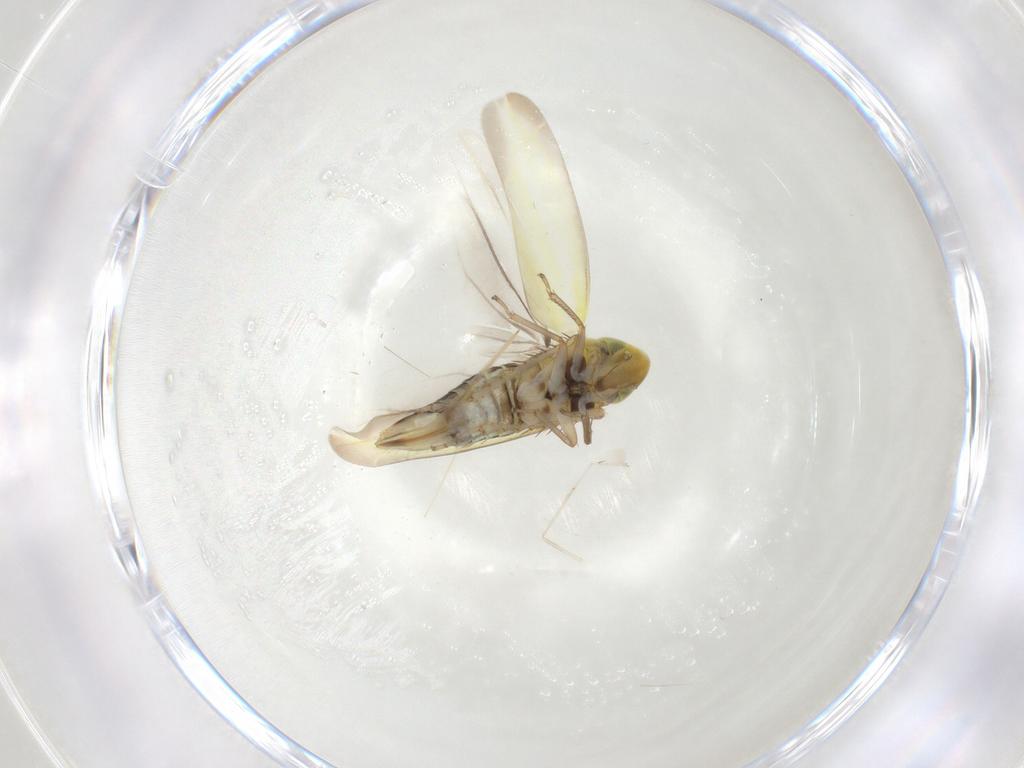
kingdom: Animalia
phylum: Arthropoda
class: Insecta
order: Hemiptera
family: Cicadellidae
